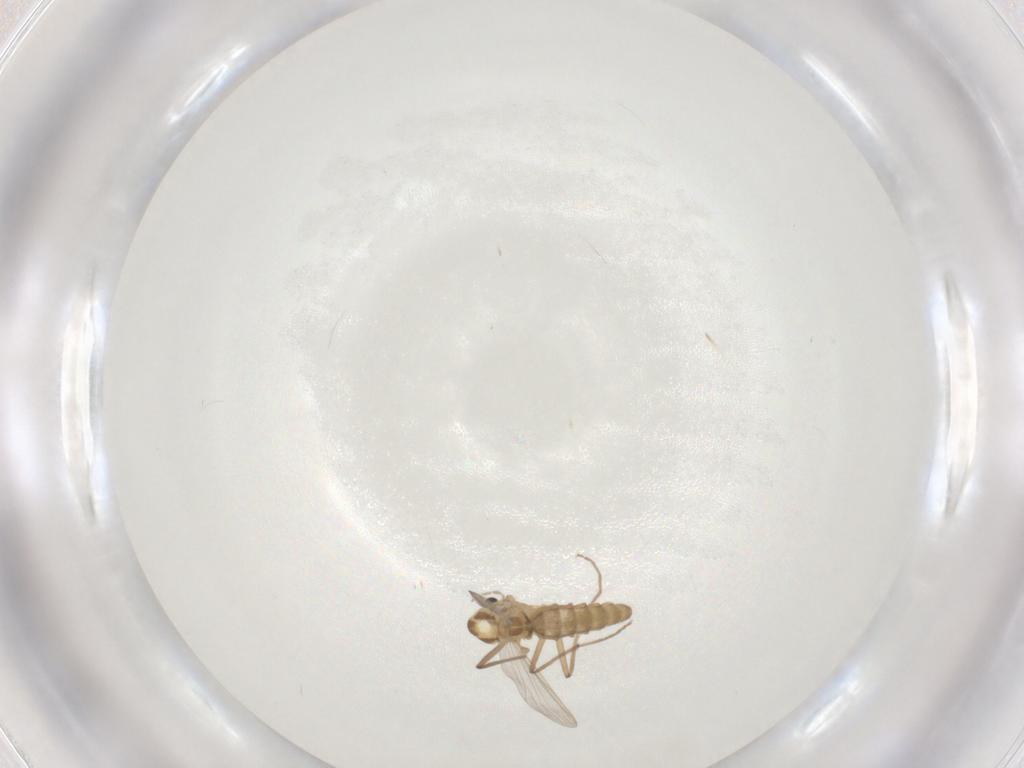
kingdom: Animalia
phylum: Arthropoda
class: Insecta
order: Diptera
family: Chironomidae
